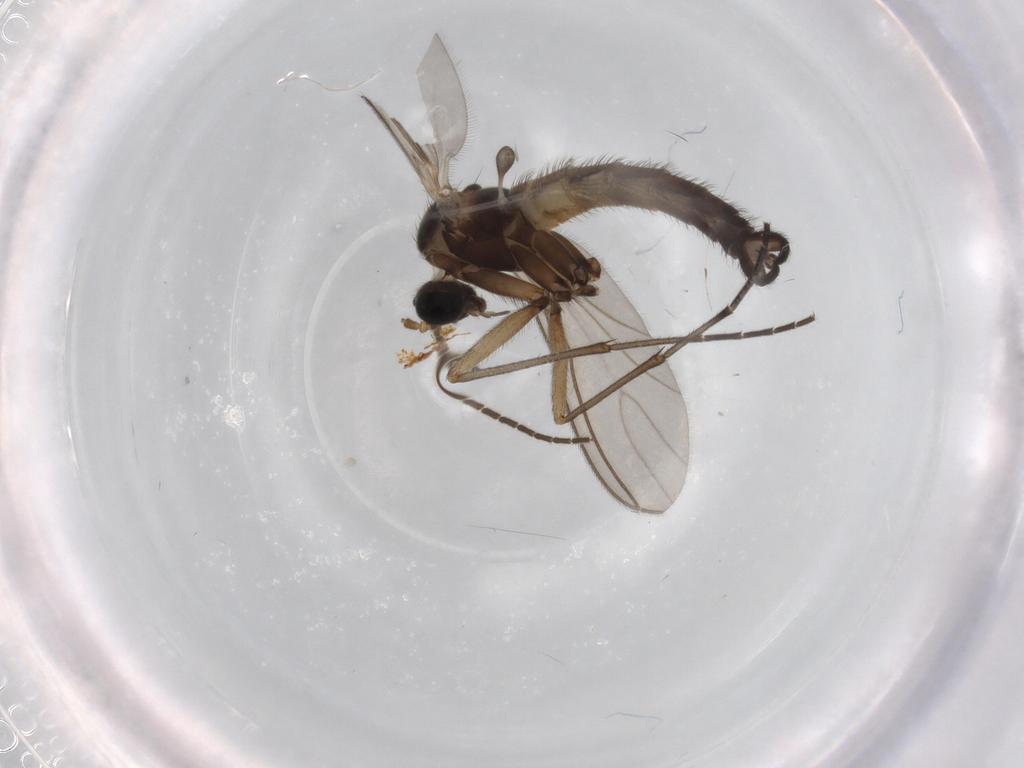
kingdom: Animalia
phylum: Arthropoda
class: Insecta
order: Diptera
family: Sciaridae
